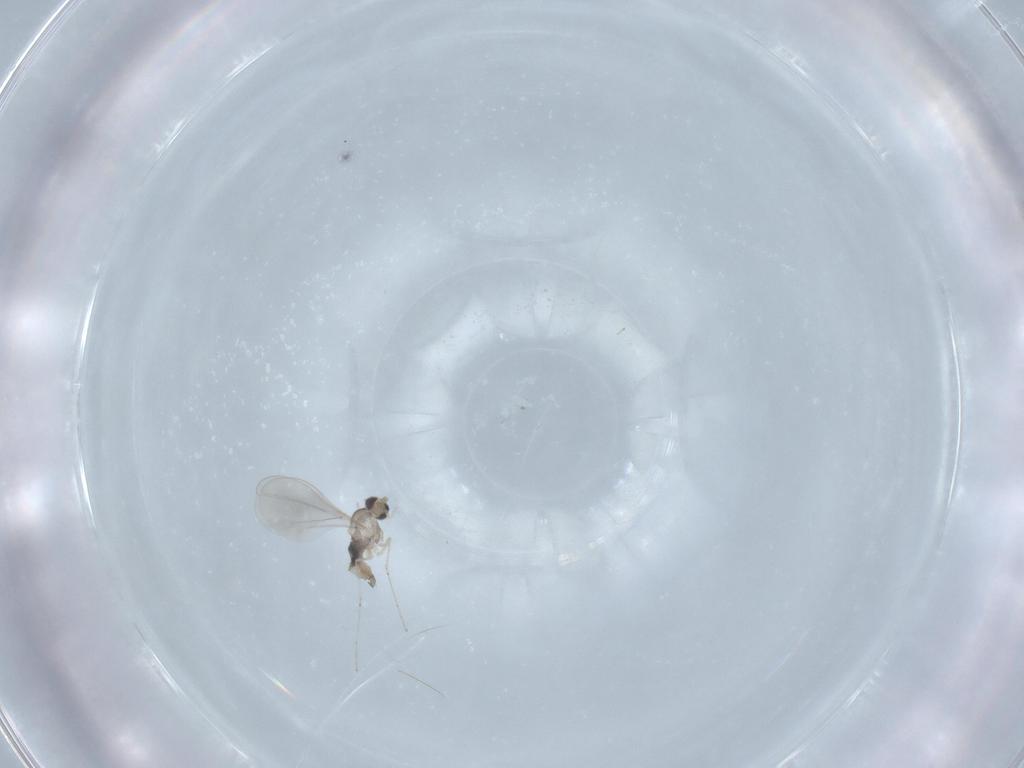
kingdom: Animalia
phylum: Arthropoda
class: Insecta
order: Diptera
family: Cecidomyiidae
